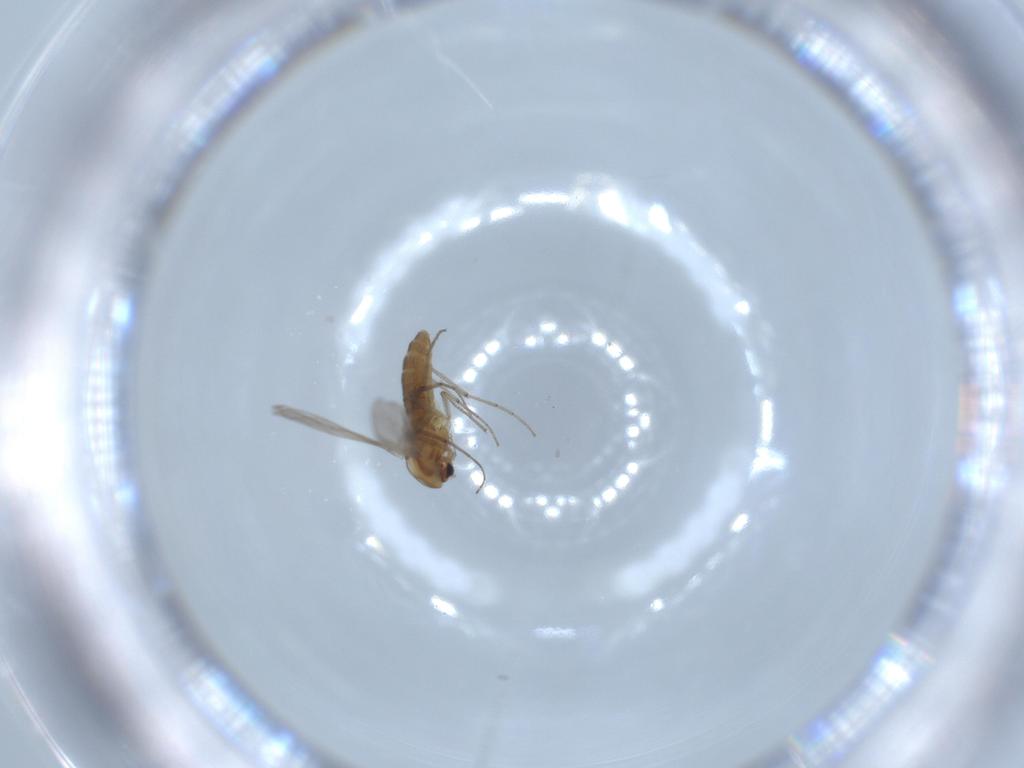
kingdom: Animalia
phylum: Arthropoda
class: Insecta
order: Diptera
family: Chironomidae
